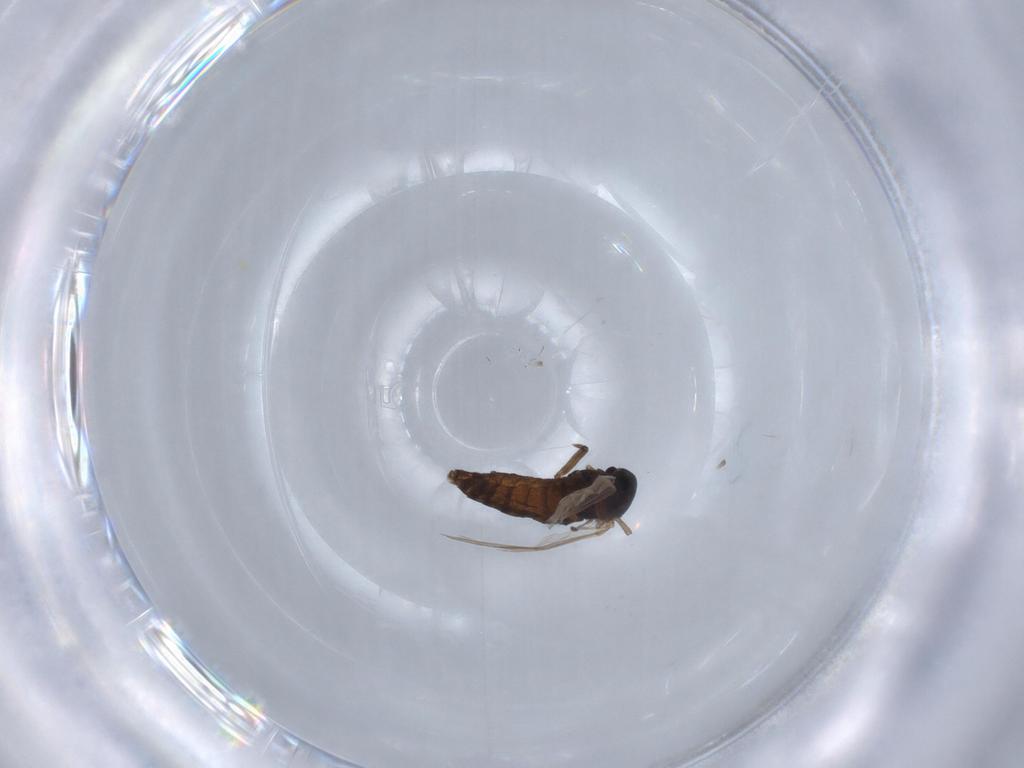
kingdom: Animalia
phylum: Arthropoda
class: Insecta
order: Diptera
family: Chironomidae
